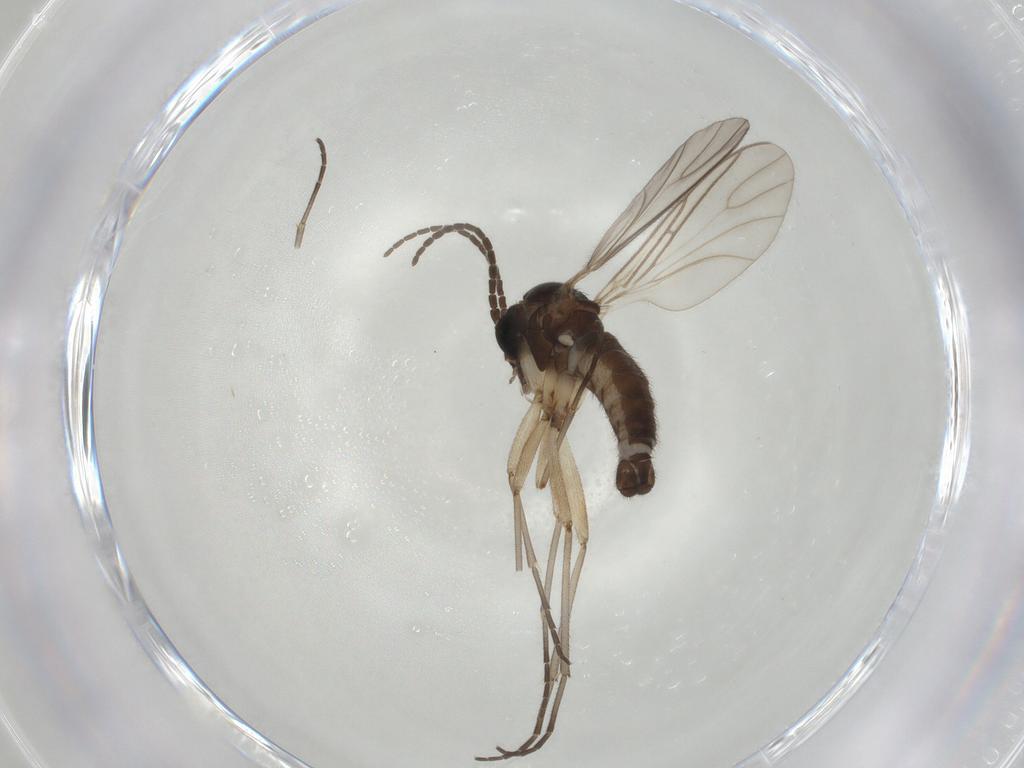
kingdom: Animalia
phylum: Arthropoda
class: Insecta
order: Diptera
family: Sciaridae
